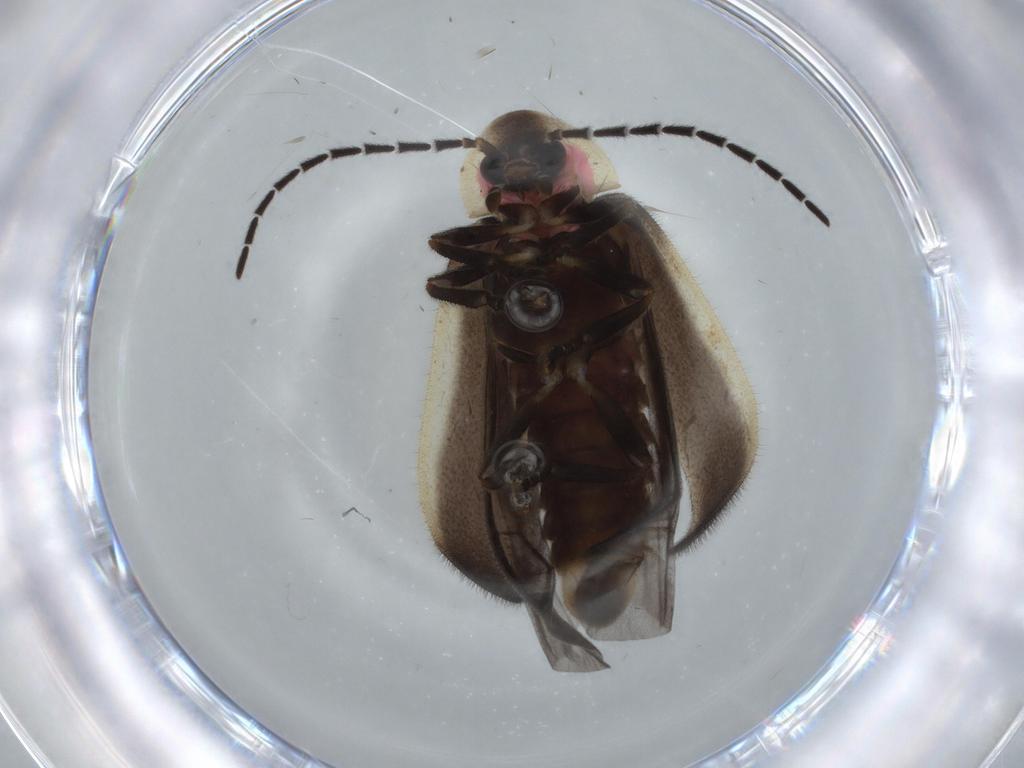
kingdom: Animalia
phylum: Arthropoda
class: Insecta
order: Coleoptera
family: Lampyridae
